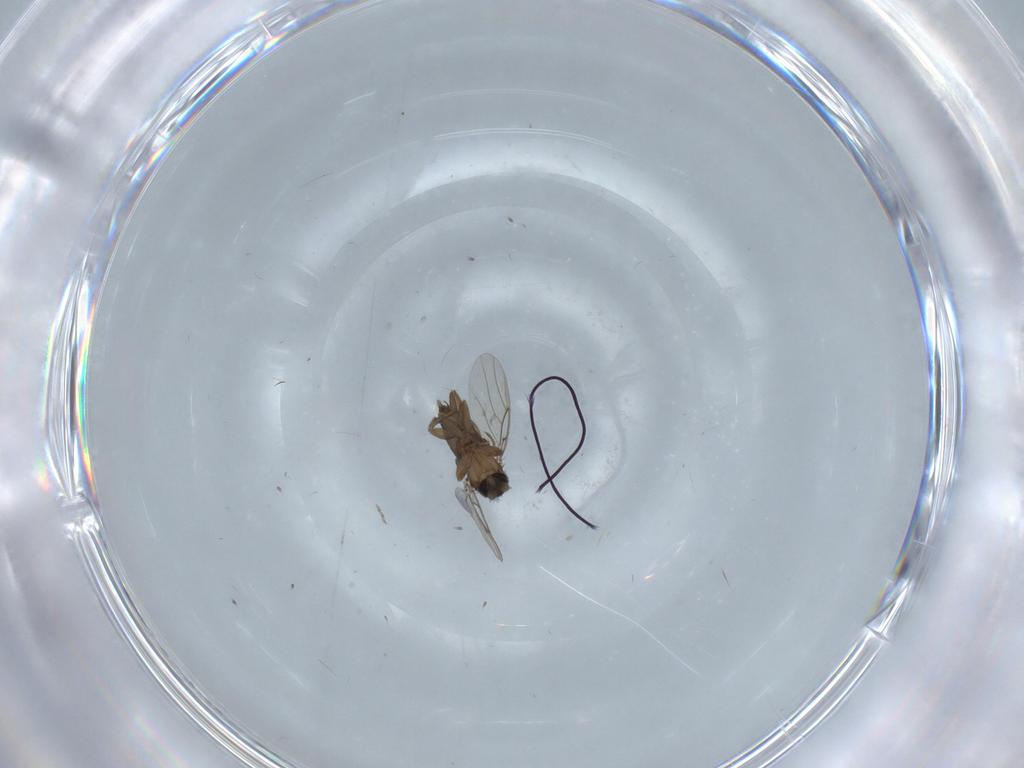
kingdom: Animalia
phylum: Arthropoda
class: Insecta
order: Diptera
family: Phoridae
